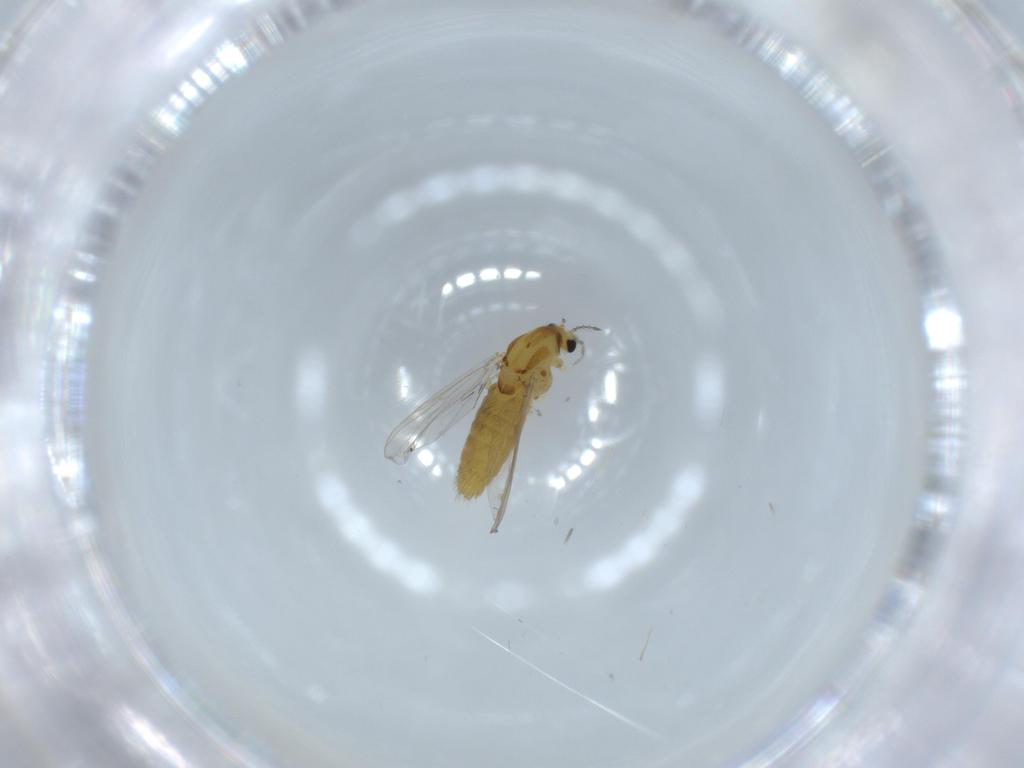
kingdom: Animalia
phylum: Arthropoda
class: Insecta
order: Diptera
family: Chironomidae
